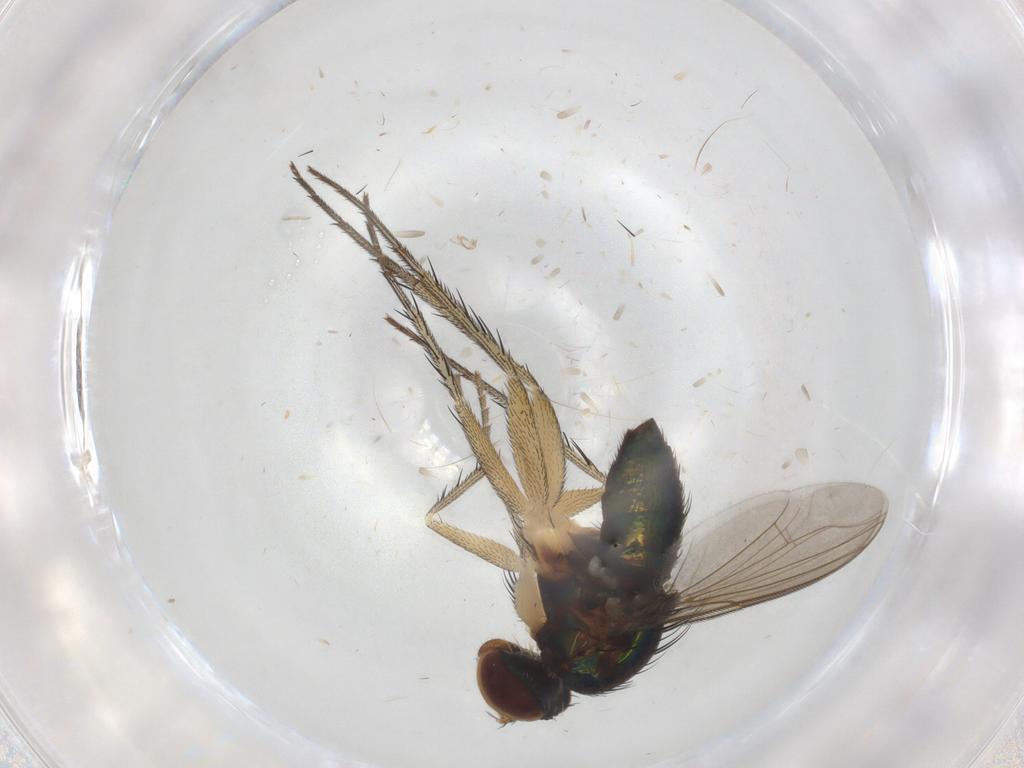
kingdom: Animalia
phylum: Arthropoda
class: Insecta
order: Diptera
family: Dolichopodidae
